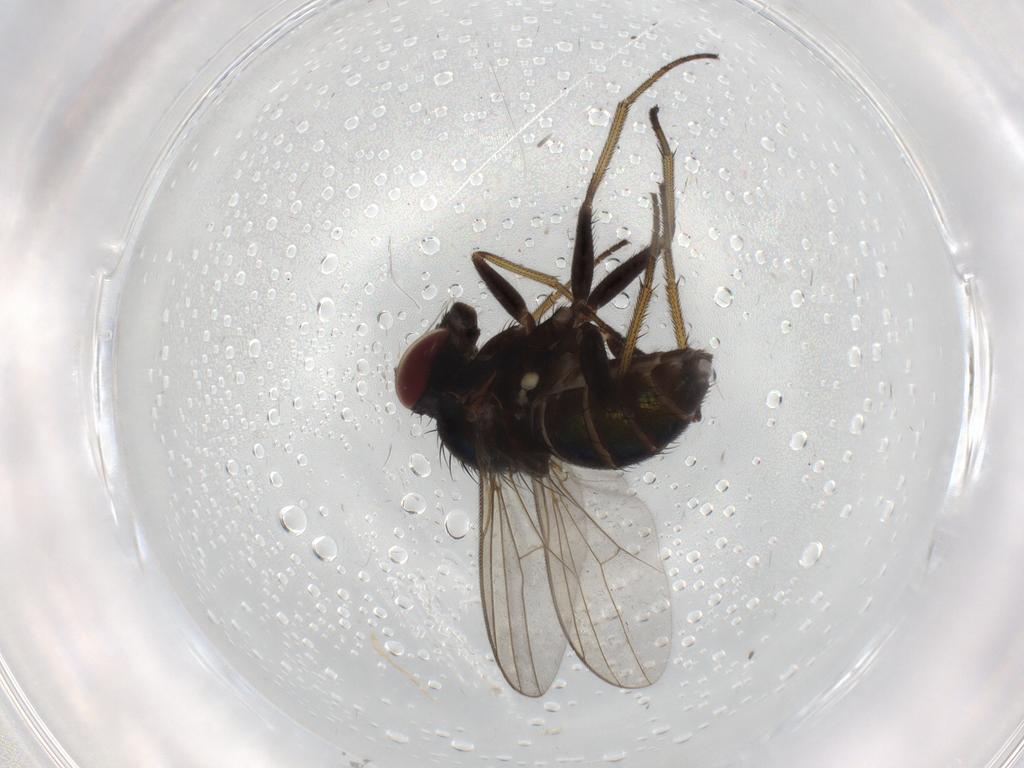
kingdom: Animalia
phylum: Arthropoda
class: Insecta
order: Diptera
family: Dolichopodidae
